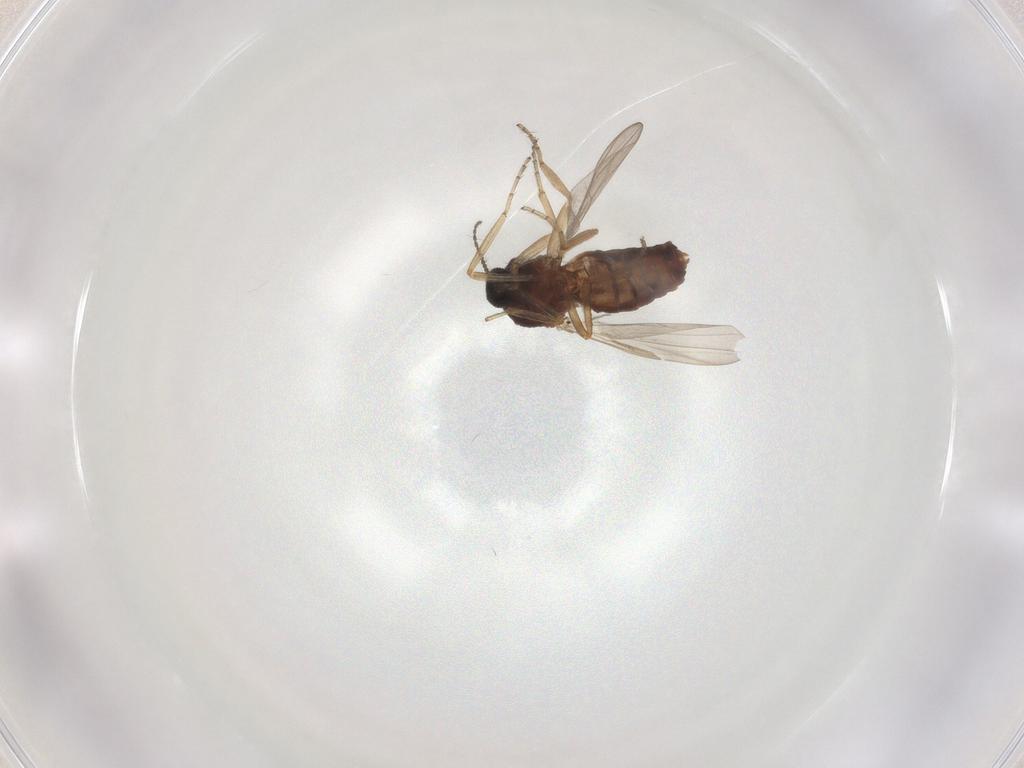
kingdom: Animalia
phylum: Arthropoda
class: Insecta
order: Diptera
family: Ceratopogonidae
